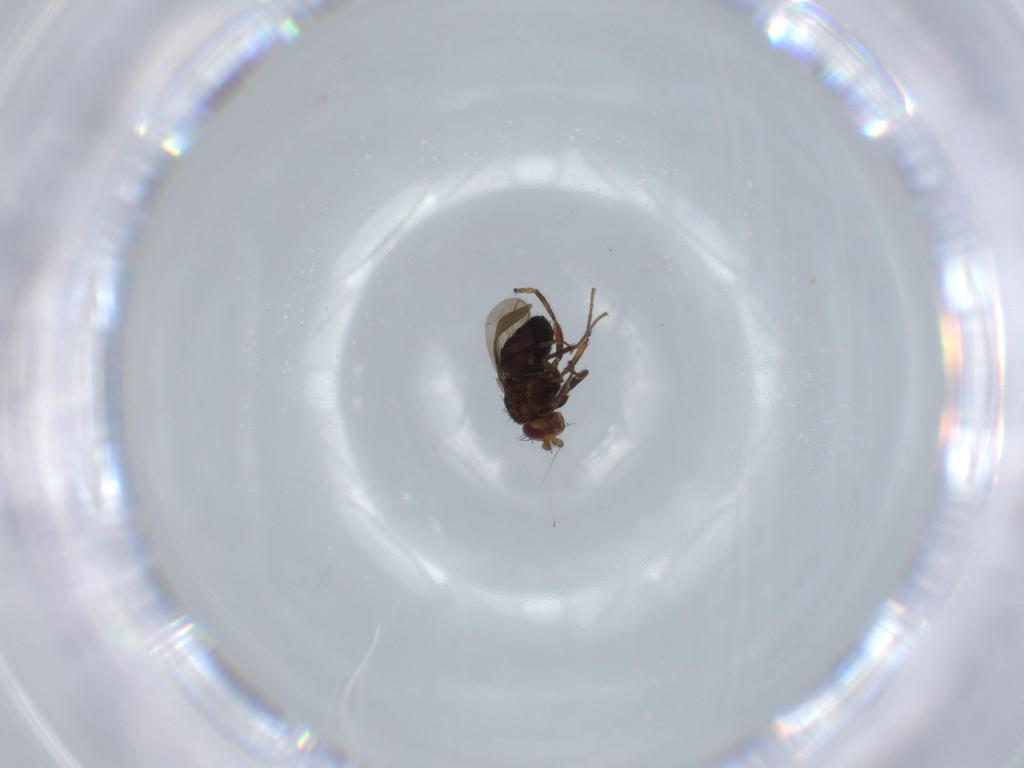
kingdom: Animalia
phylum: Arthropoda
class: Insecta
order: Diptera
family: Sphaeroceridae
